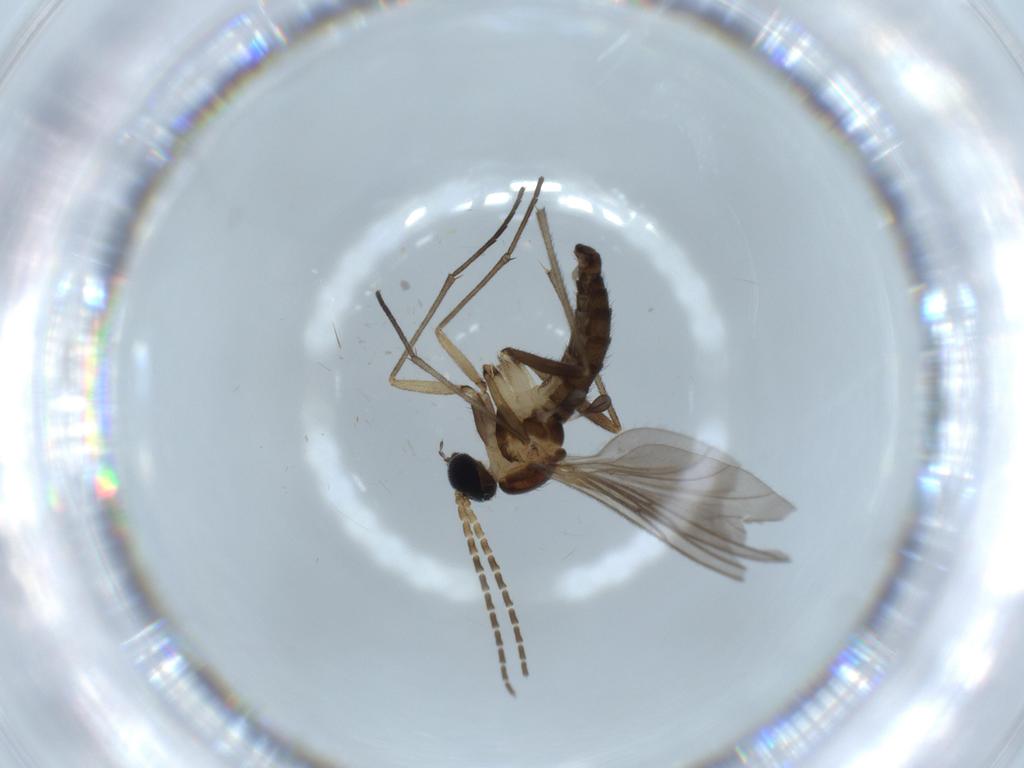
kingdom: Animalia
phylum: Arthropoda
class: Insecta
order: Diptera
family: Sciaridae
